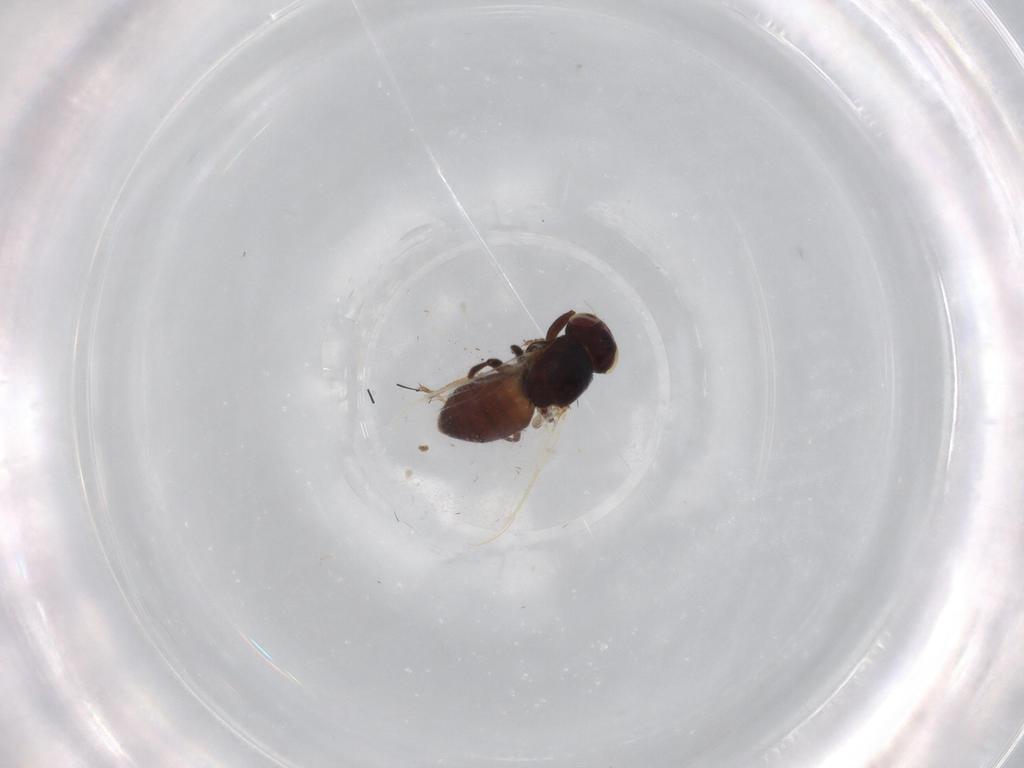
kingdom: Animalia
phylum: Arthropoda
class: Insecta
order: Diptera
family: Chloropidae
